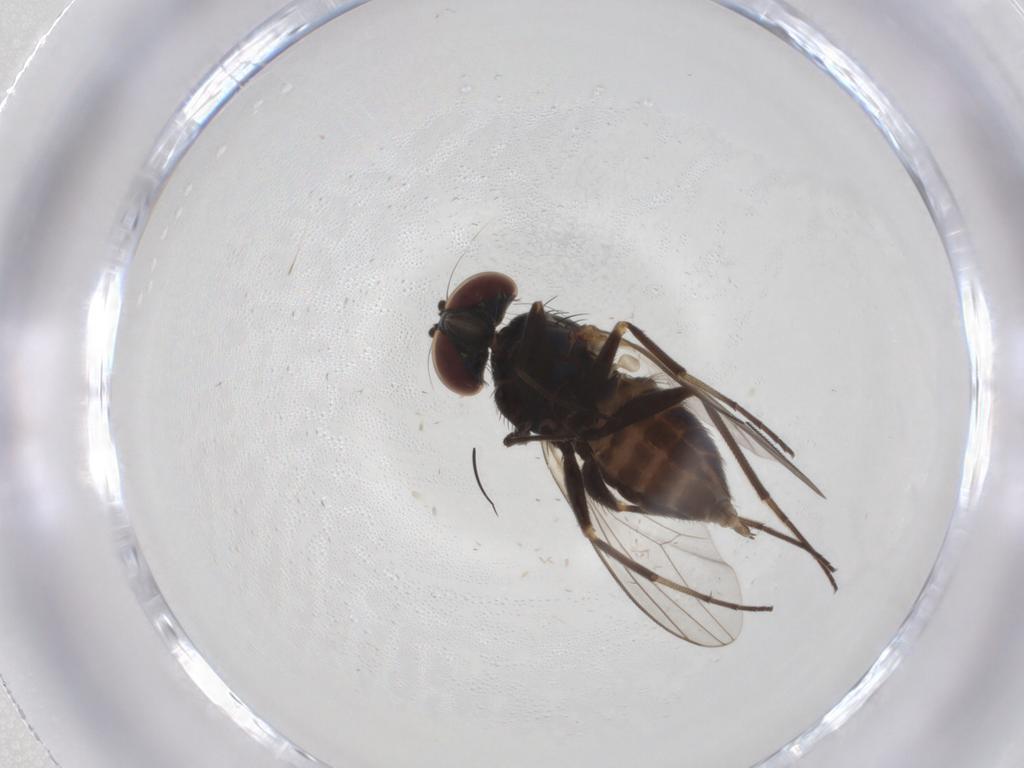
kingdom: Animalia
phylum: Arthropoda
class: Insecta
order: Diptera
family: Dolichopodidae
